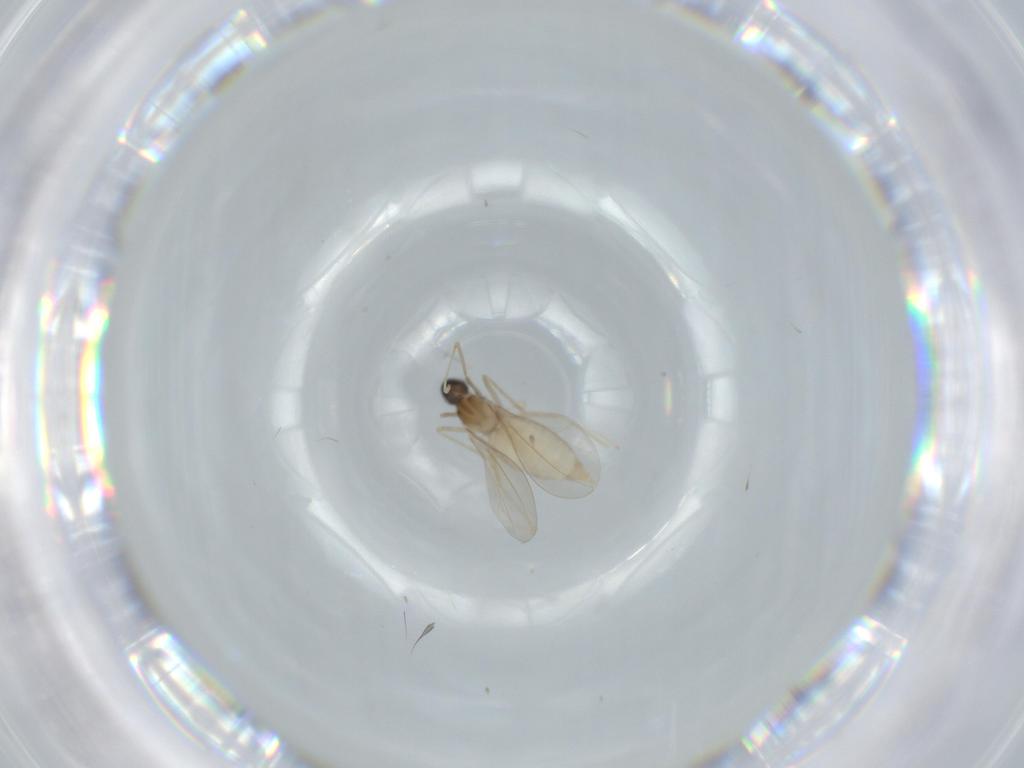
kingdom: Animalia
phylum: Arthropoda
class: Insecta
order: Diptera
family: Cecidomyiidae
